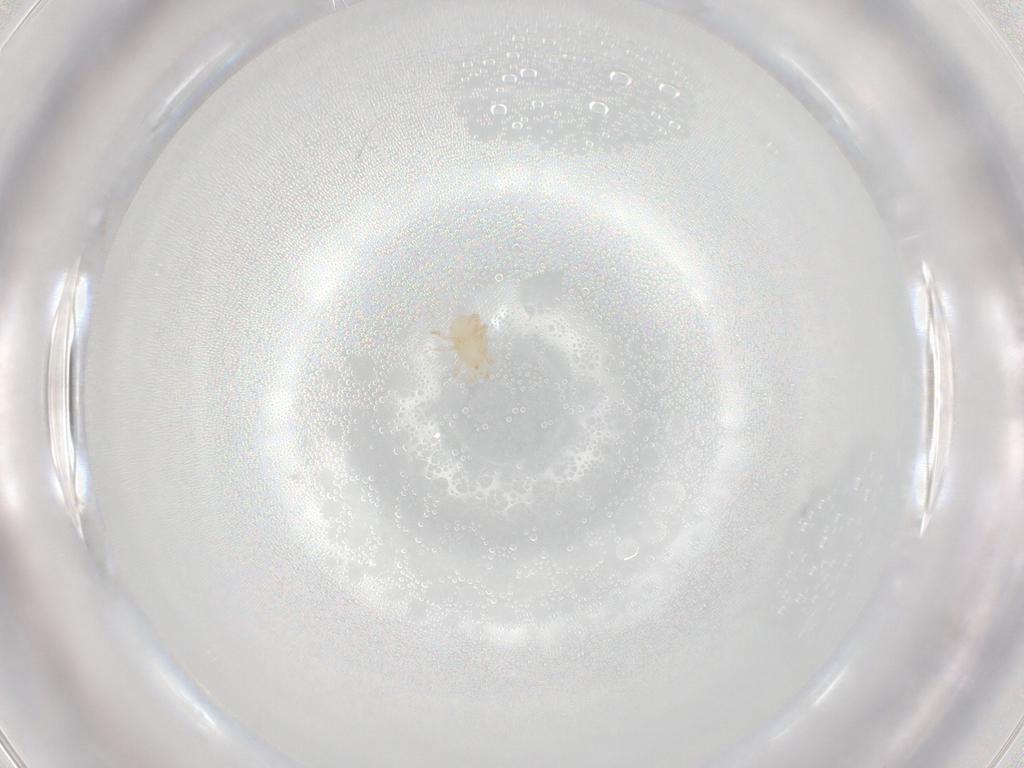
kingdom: Animalia
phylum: Arthropoda
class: Arachnida
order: Mesostigmata
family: Melicharidae
